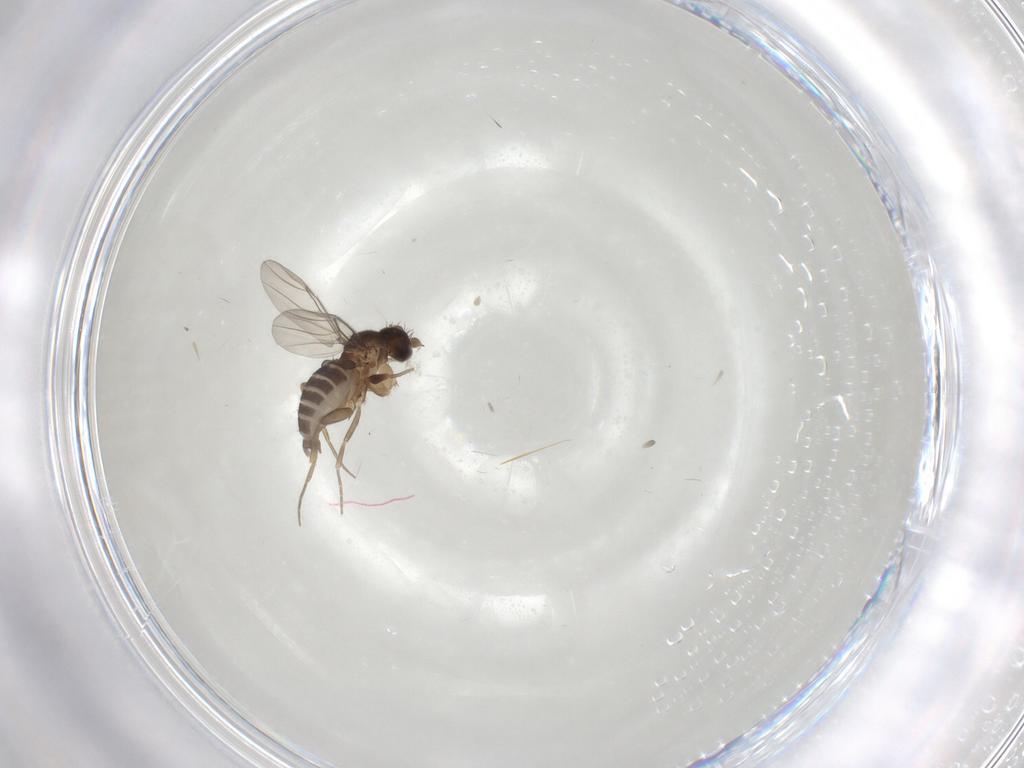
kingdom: Animalia
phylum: Arthropoda
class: Insecta
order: Diptera
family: Phoridae
